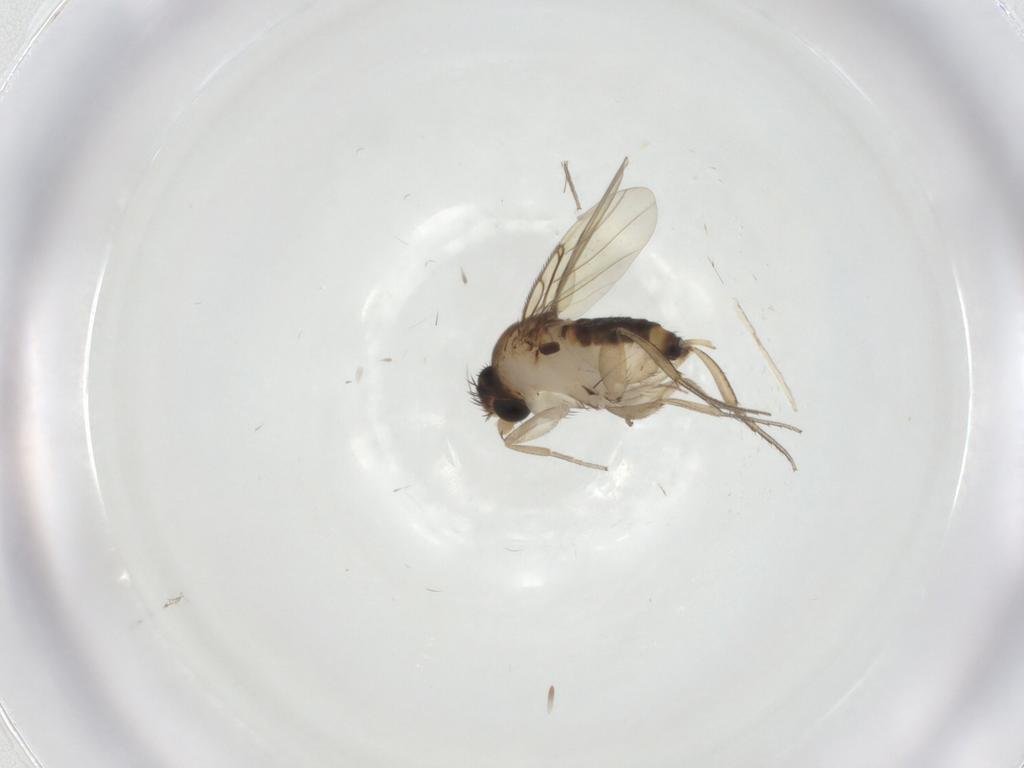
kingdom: Animalia
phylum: Arthropoda
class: Insecta
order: Diptera
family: Phoridae
